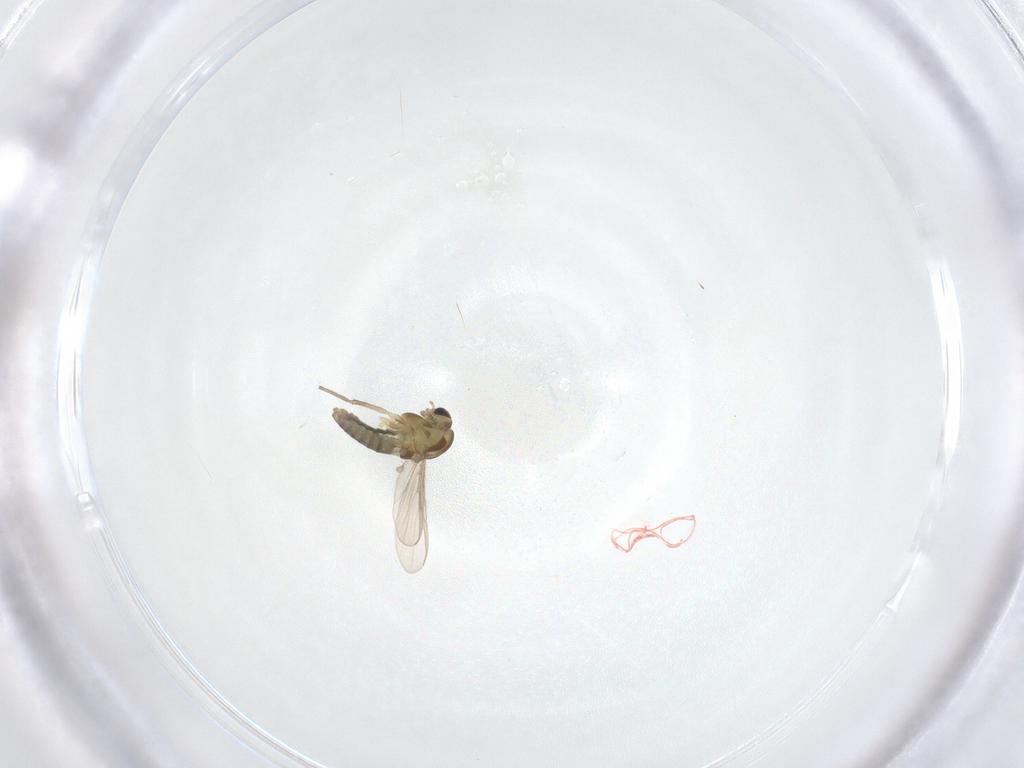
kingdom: Animalia
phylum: Arthropoda
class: Insecta
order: Diptera
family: Chironomidae
